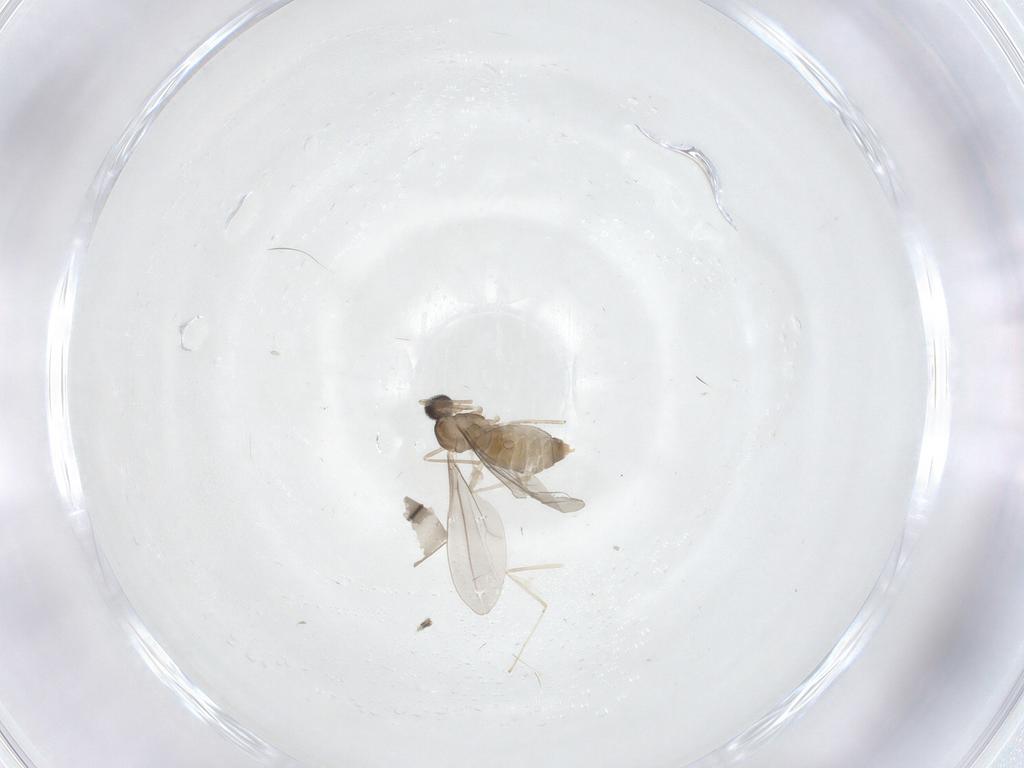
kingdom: Animalia
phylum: Arthropoda
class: Insecta
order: Diptera
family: Cecidomyiidae
